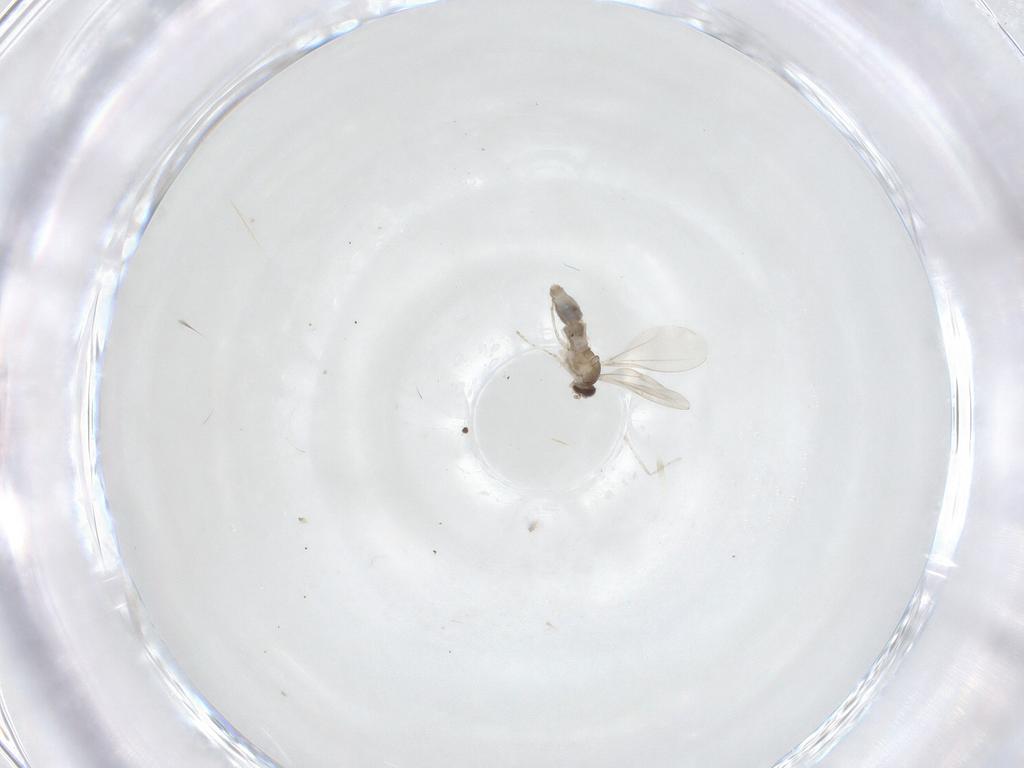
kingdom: Animalia
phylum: Arthropoda
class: Insecta
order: Diptera
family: Cecidomyiidae
